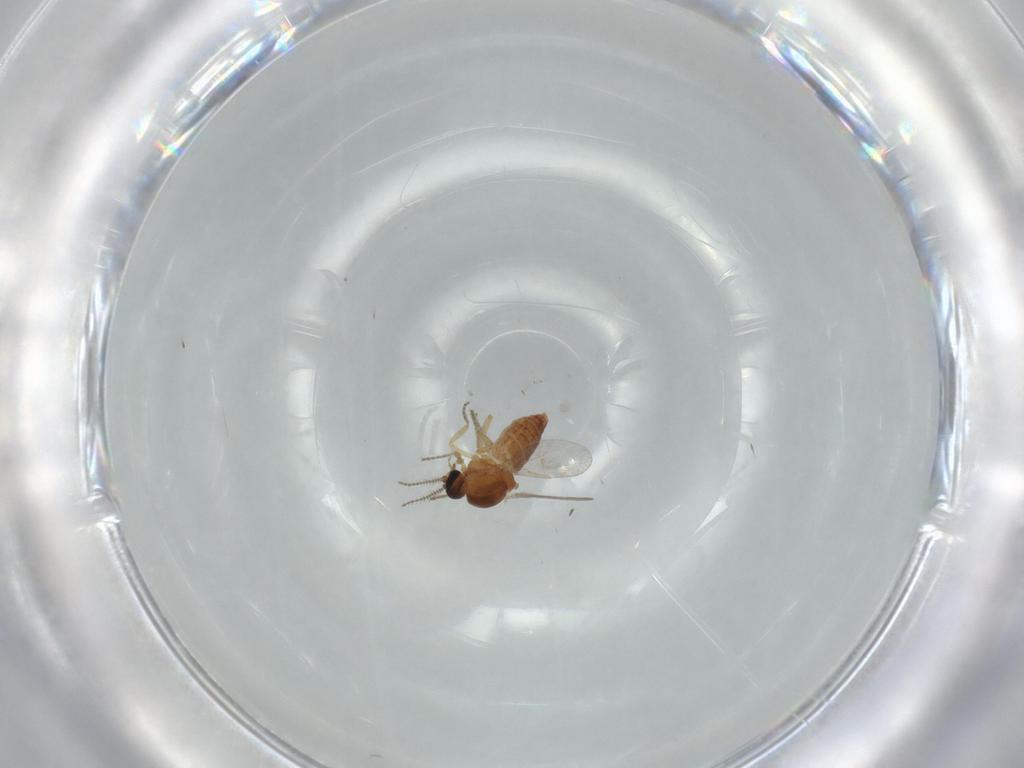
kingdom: Animalia
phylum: Arthropoda
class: Insecta
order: Diptera
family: Ceratopogonidae
